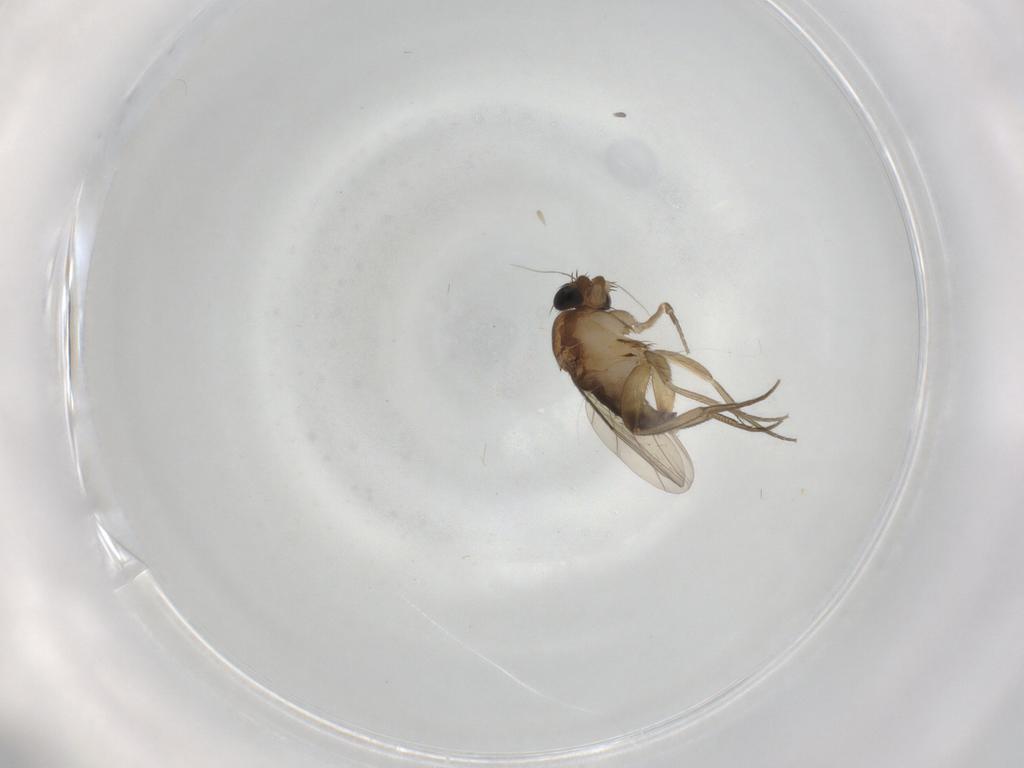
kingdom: Animalia
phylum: Arthropoda
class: Insecta
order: Diptera
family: Phoridae
